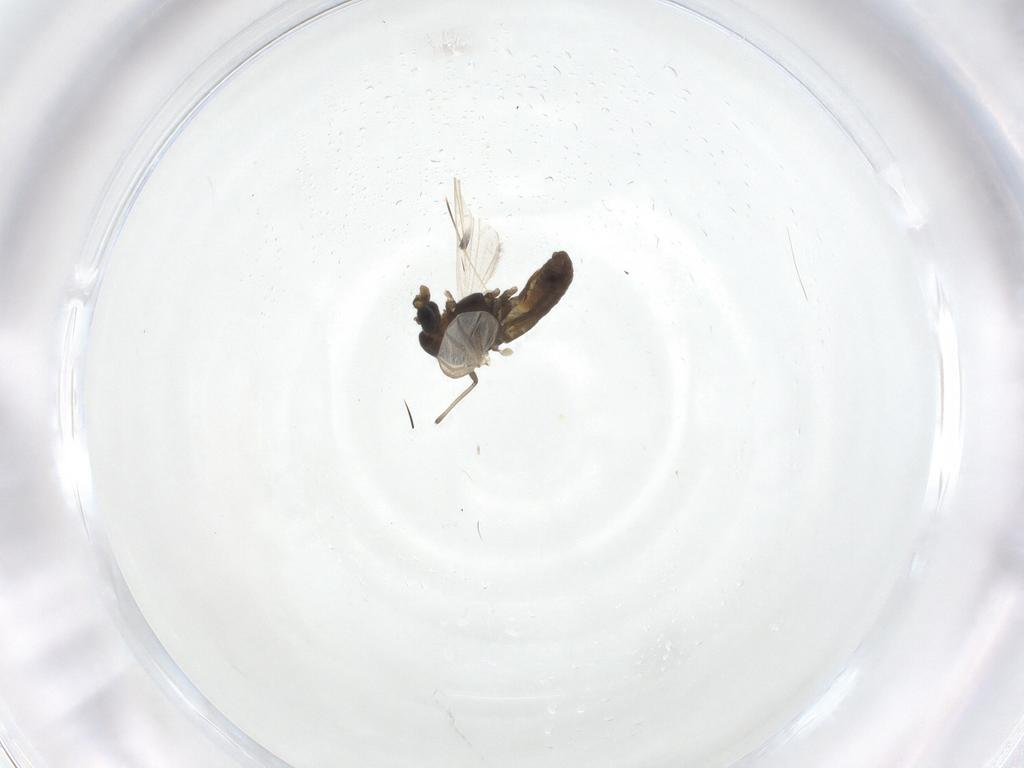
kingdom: Animalia
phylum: Arthropoda
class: Insecta
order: Diptera
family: Chironomidae
